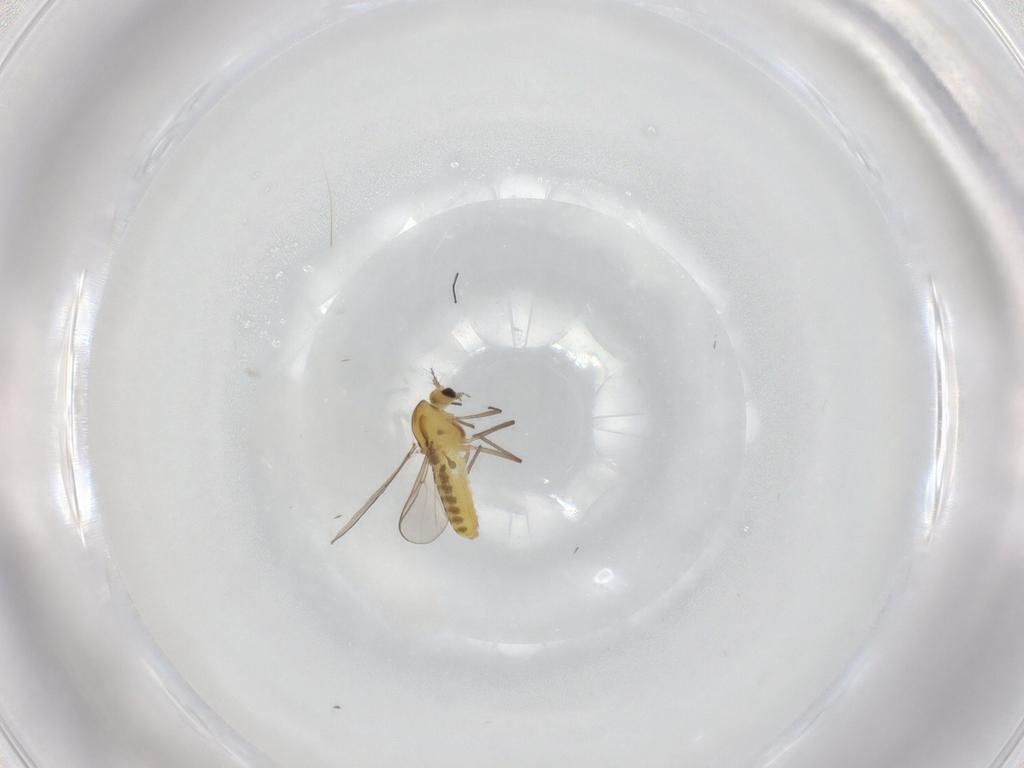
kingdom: Animalia
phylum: Arthropoda
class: Insecta
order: Diptera
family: Chironomidae
